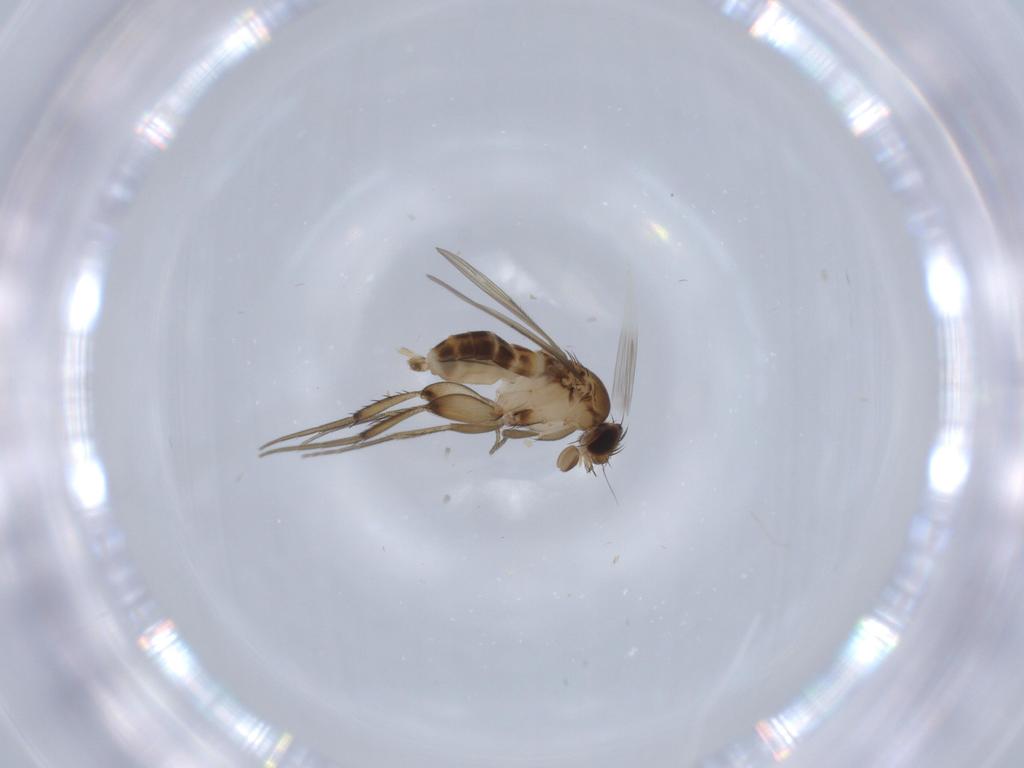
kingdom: Animalia
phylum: Arthropoda
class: Insecta
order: Diptera
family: Phoridae
